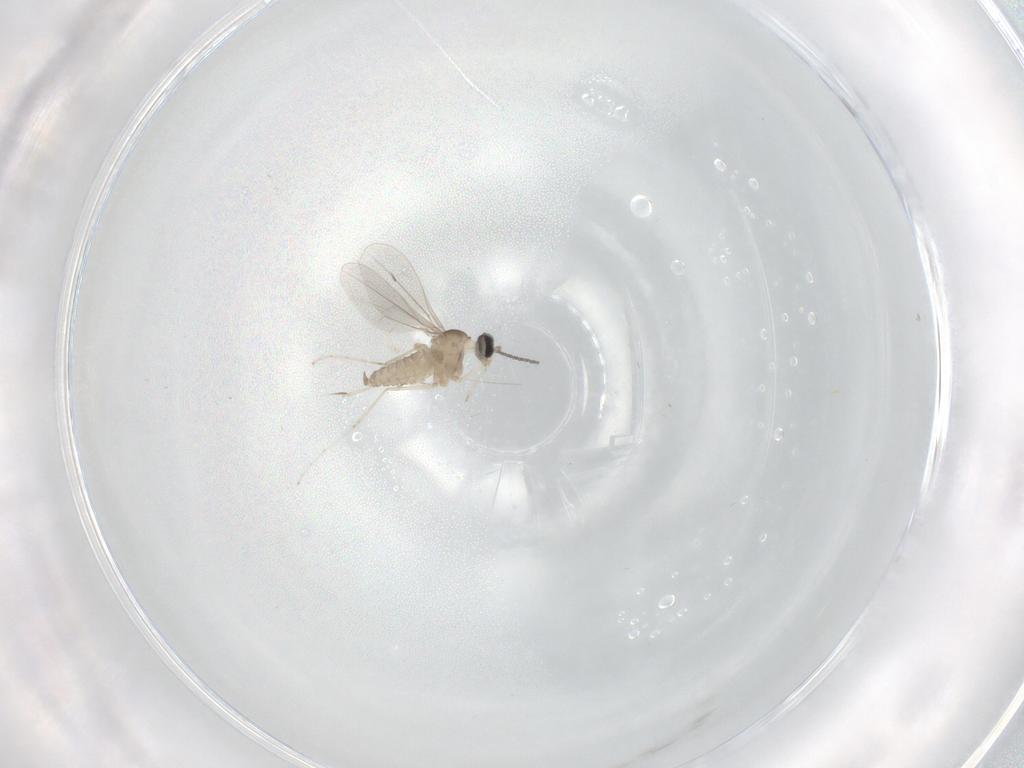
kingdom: Animalia
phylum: Arthropoda
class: Insecta
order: Diptera
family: Cecidomyiidae
